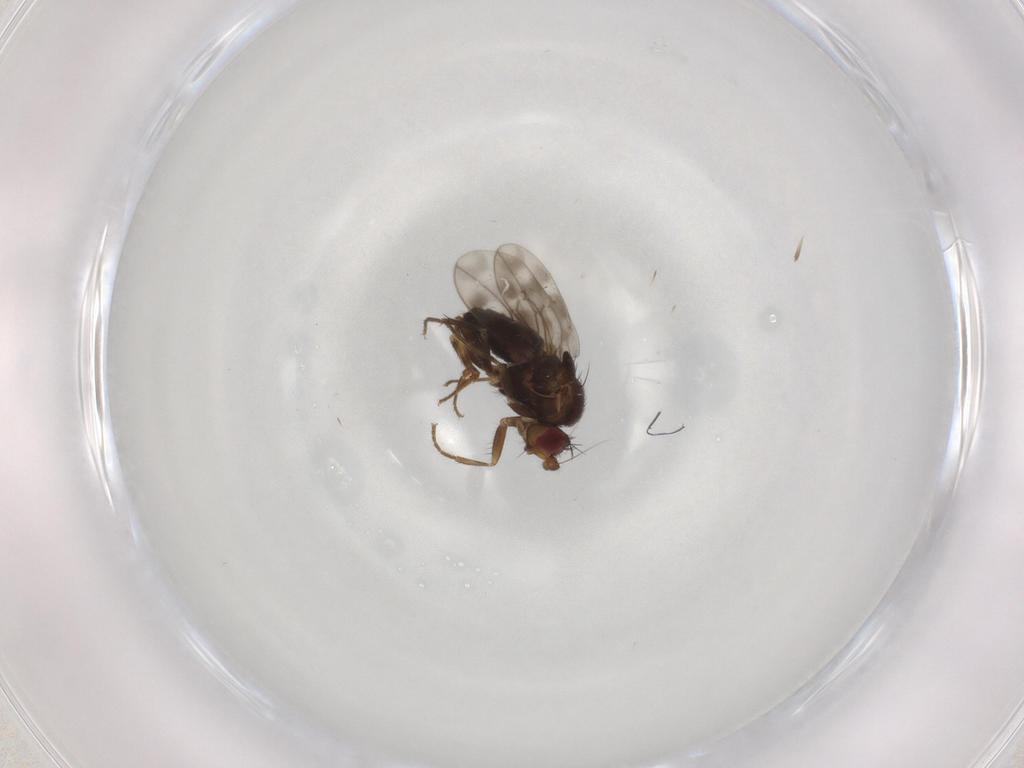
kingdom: Animalia
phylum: Arthropoda
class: Insecta
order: Diptera
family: Sphaeroceridae
